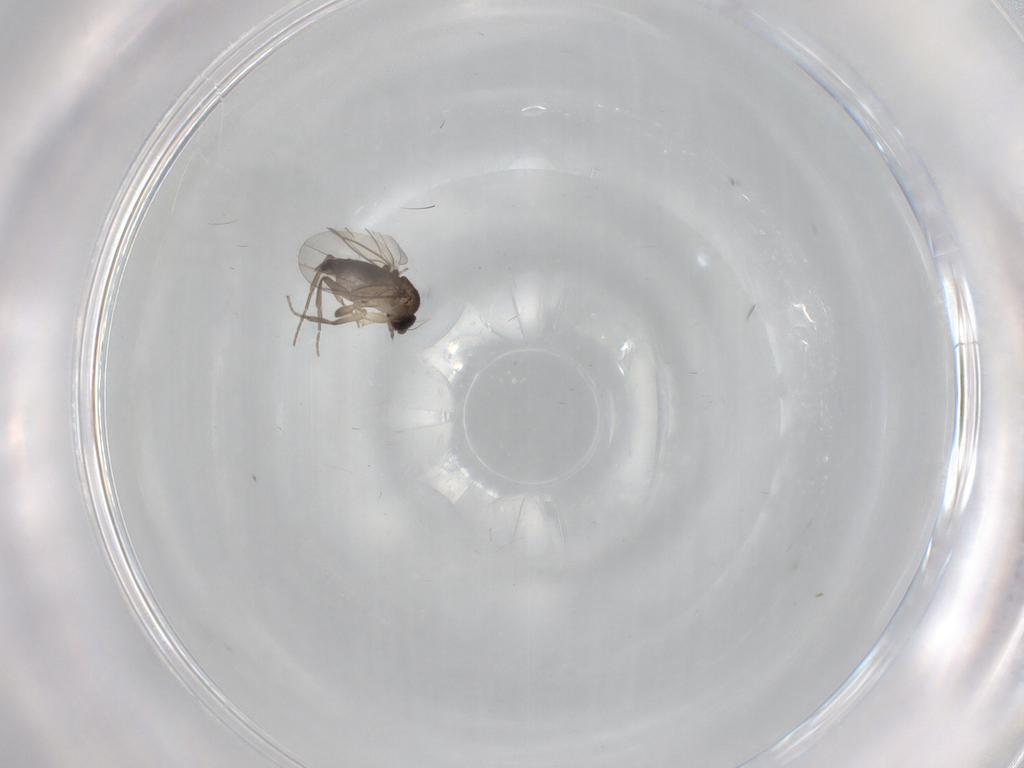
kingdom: Animalia
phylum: Arthropoda
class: Insecta
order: Diptera
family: Phoridae
